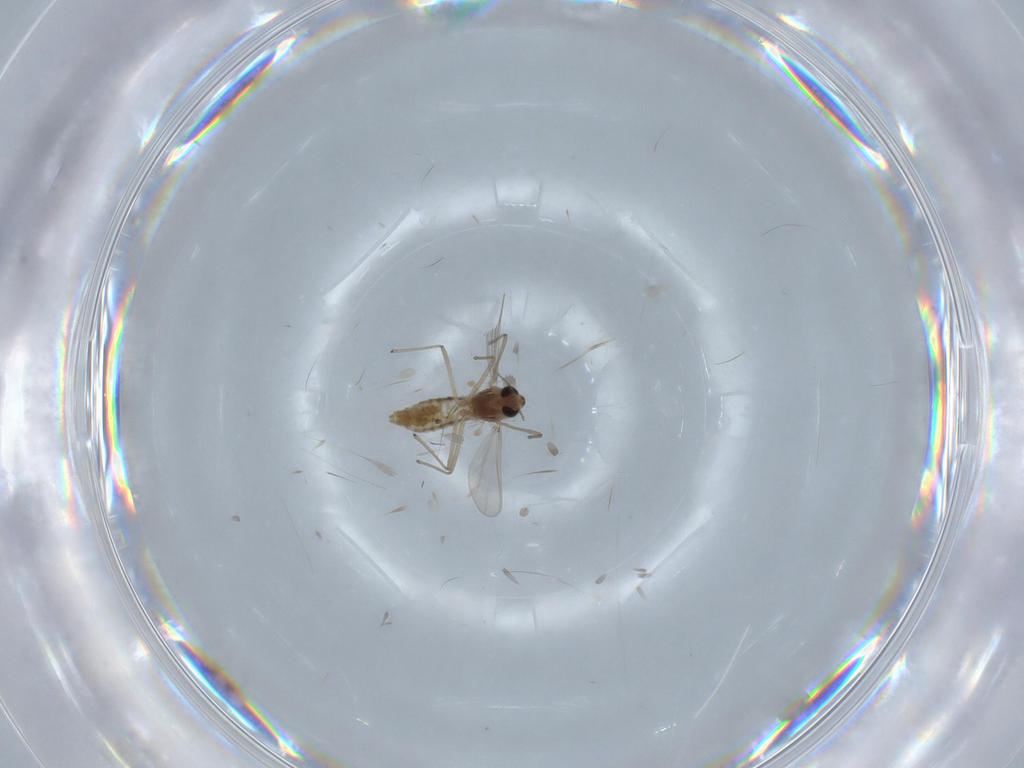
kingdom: Animalia
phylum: Arthropoda
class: Insecta
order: Diptera
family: Chironomidae
